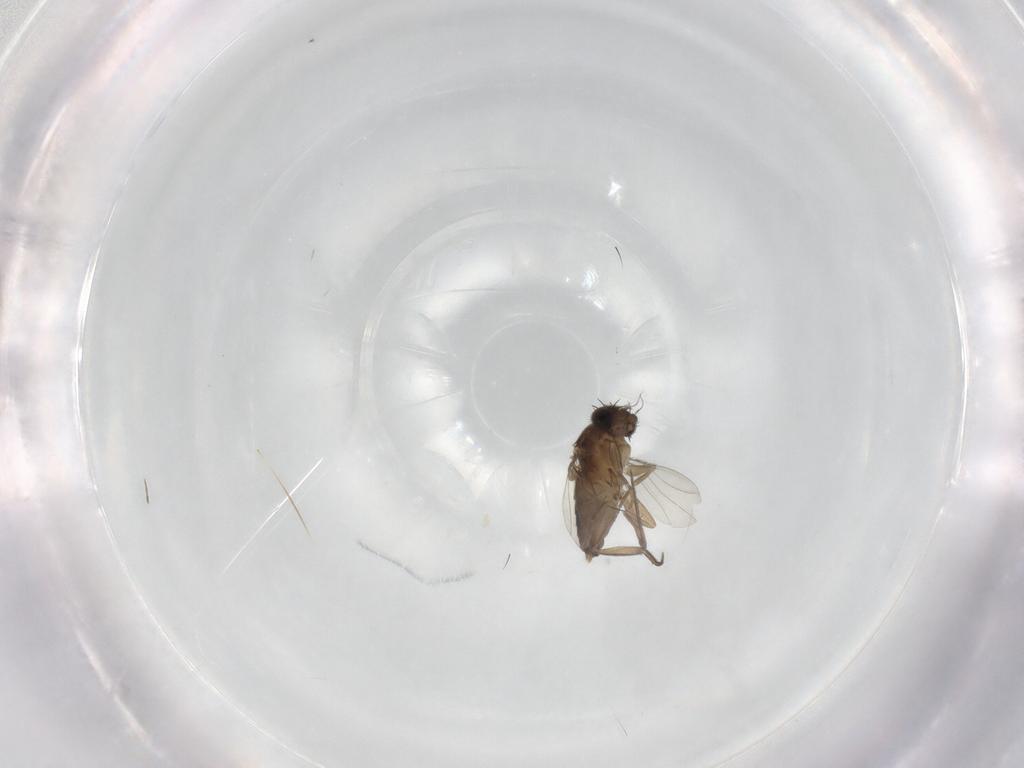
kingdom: Animalia
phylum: Arthropoda
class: Insecta
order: Diptera
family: Phoridae
